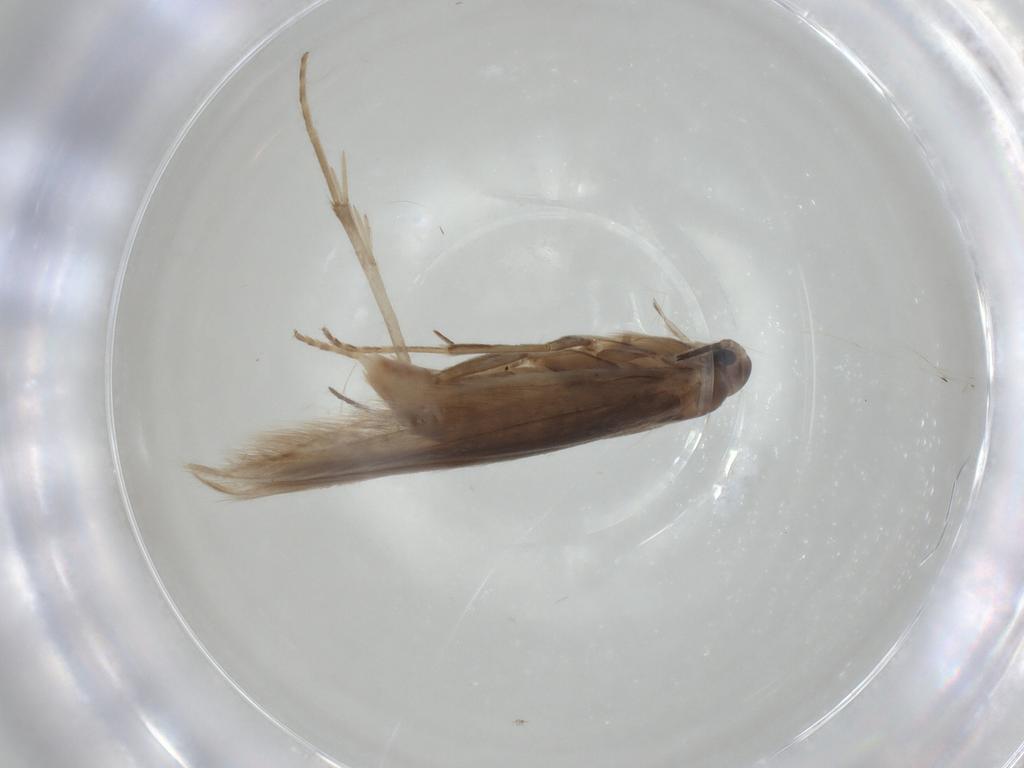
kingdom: Animalia
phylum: Arthropoda
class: Insecta
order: Lepidoptera
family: Coleophoridae
